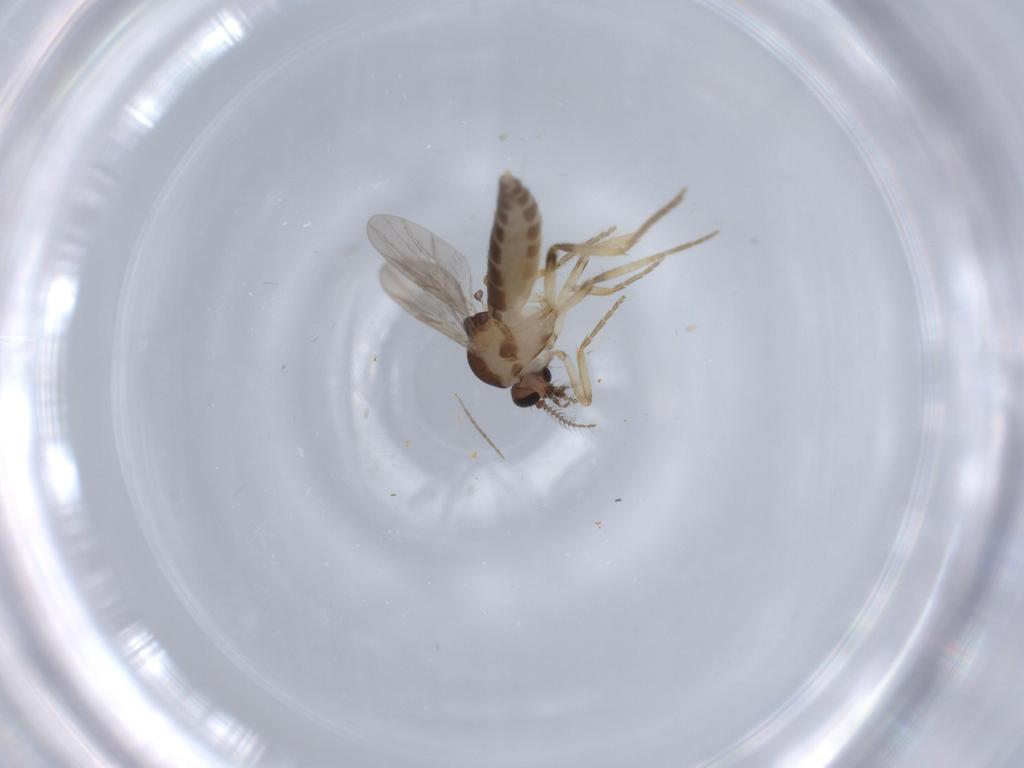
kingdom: Animalia
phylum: Arthropoda
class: Insecta
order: Diptera
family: Ceratopogonidae
